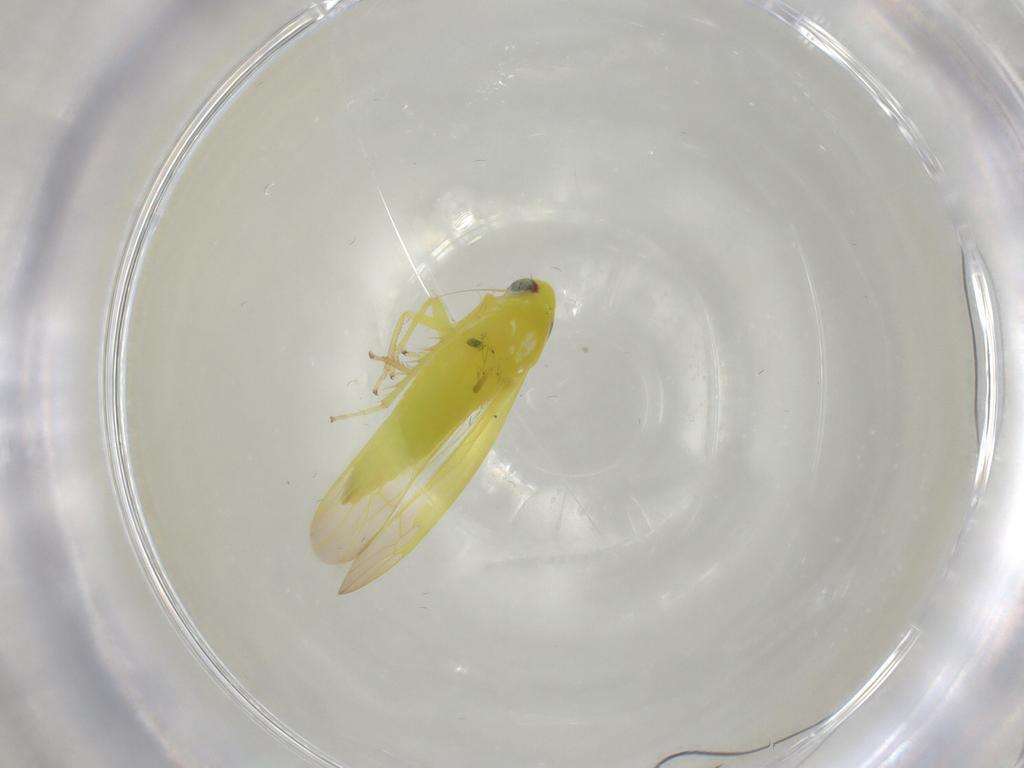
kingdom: Animalia
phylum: Arthropoda
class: Insecta
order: Hemiptera
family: Cicadellidae
